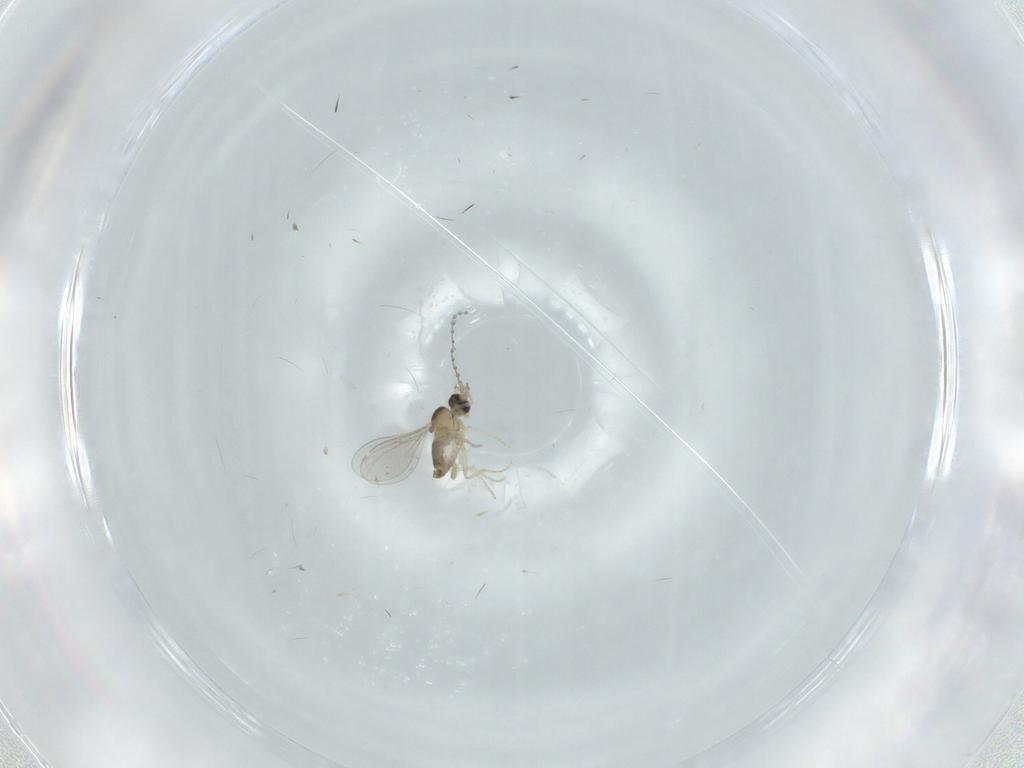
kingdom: Animalia
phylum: Arthropoda
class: Insecta
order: Diptera
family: Chironomidae
